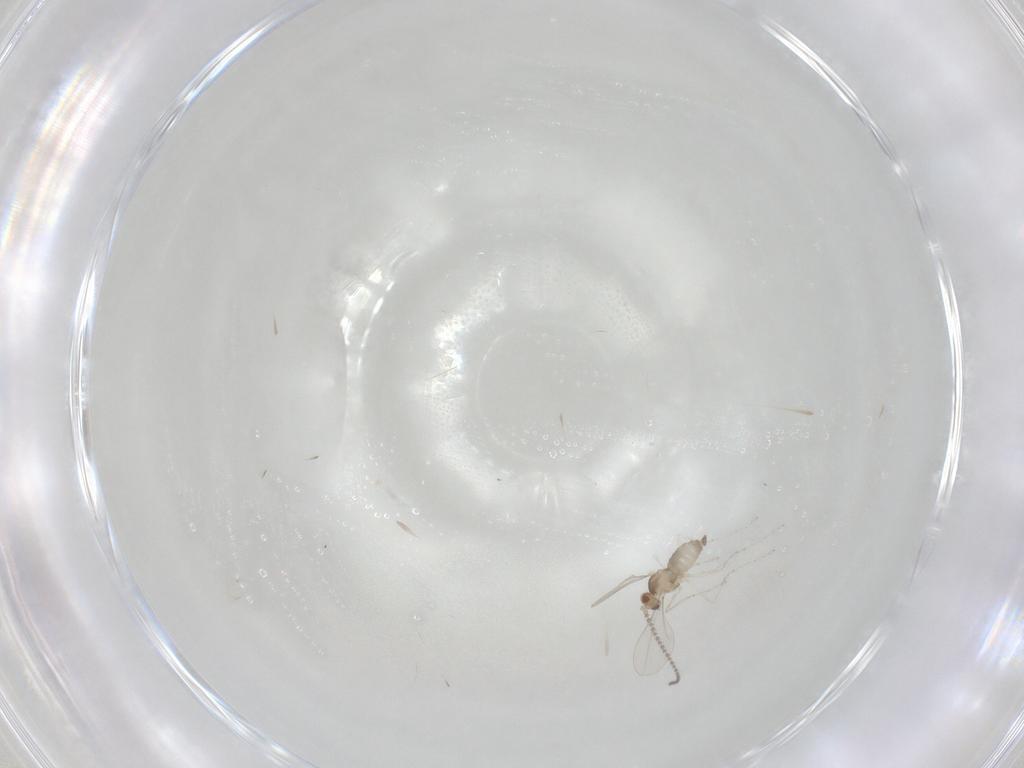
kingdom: Animalia
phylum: Arthropoda
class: Insecta
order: Diptera
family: Cecidomyiidae
